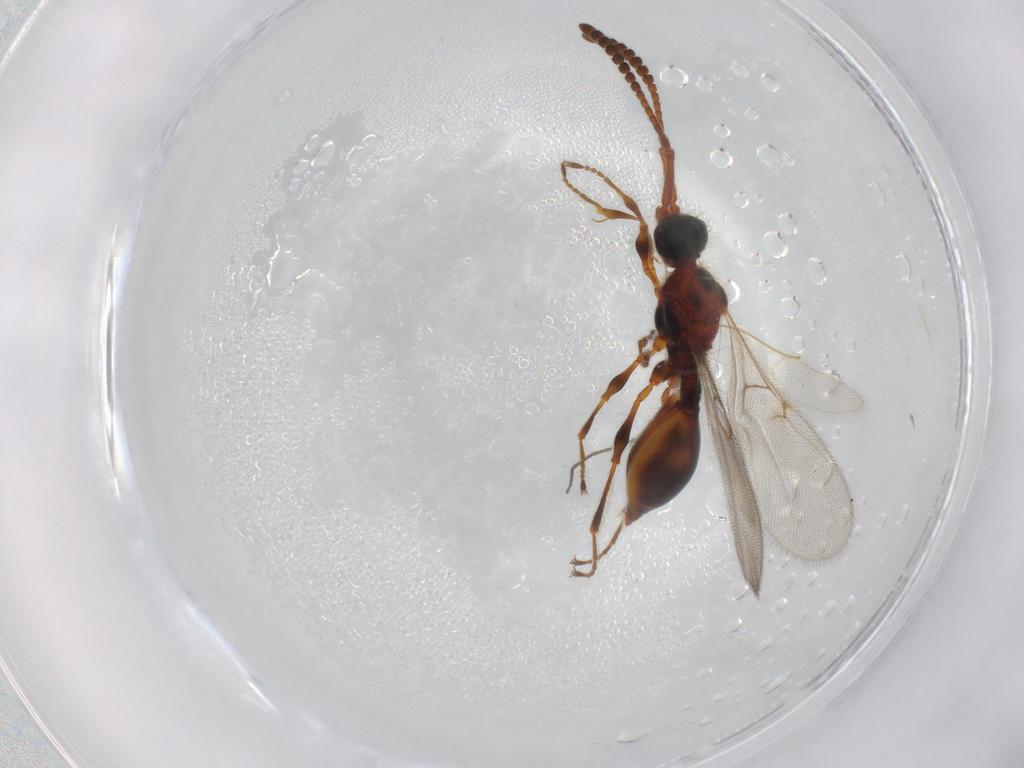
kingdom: Animalia
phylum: Arthropoda
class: Insecta
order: Hymenoptera
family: Diapriidae
